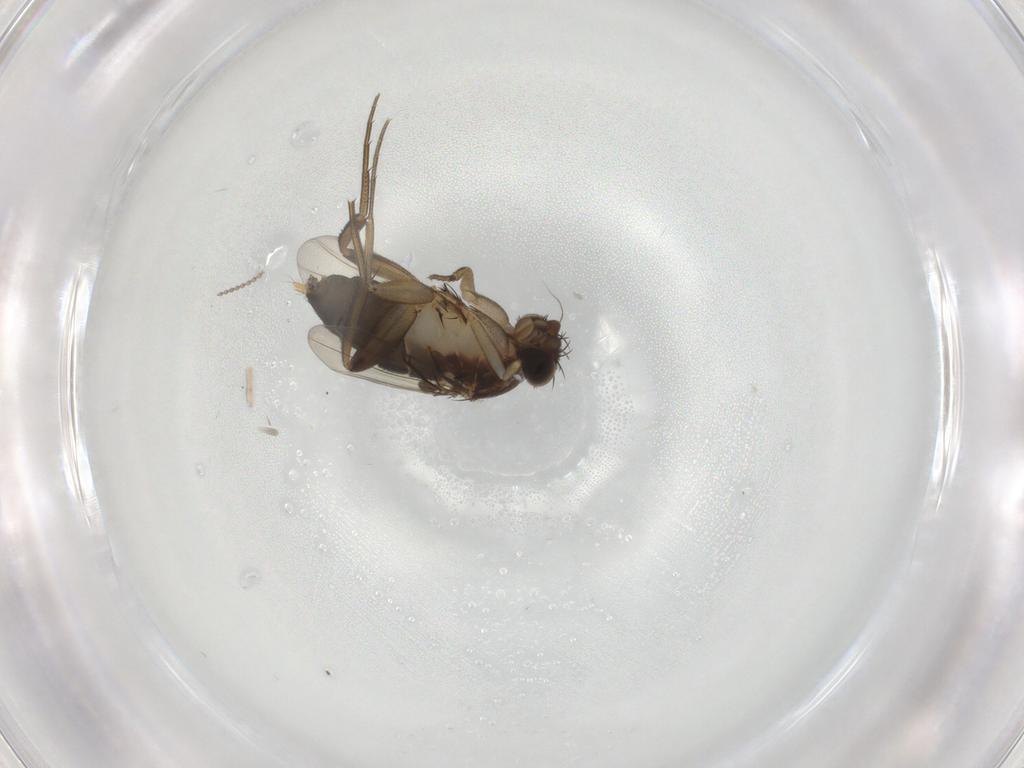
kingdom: Animalia
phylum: Arthropoda
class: Insecta
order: Diptera
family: Phoridae
